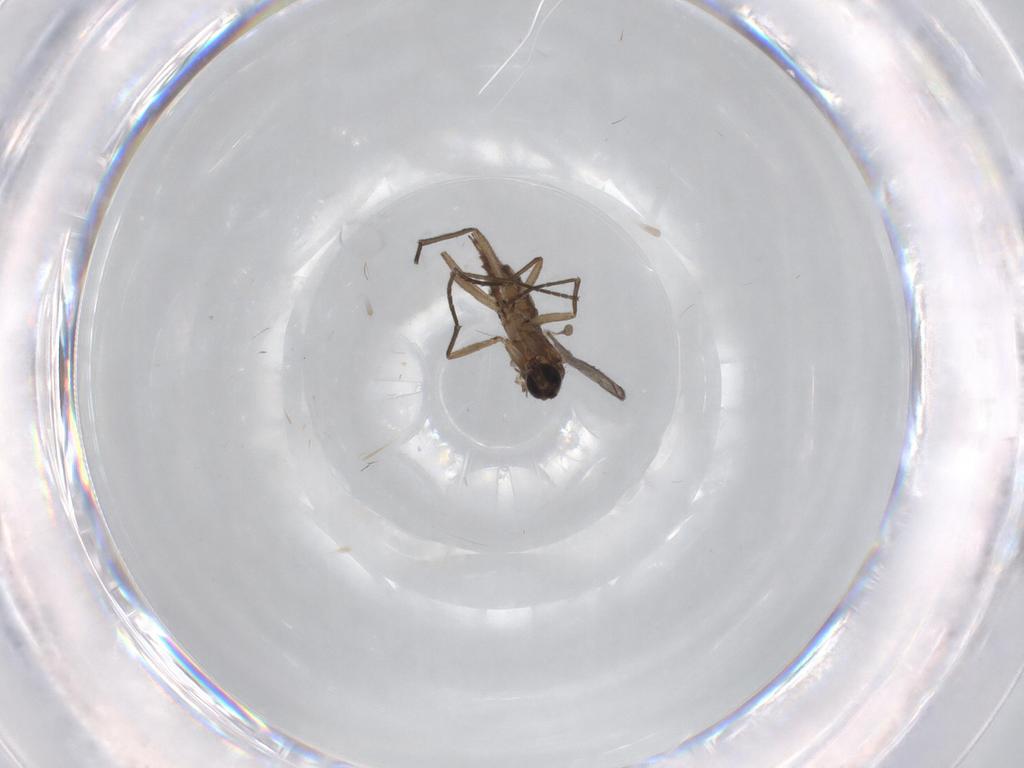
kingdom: Animalia
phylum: Arthropoda
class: Insecta
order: Diptera
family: Sciaridae
